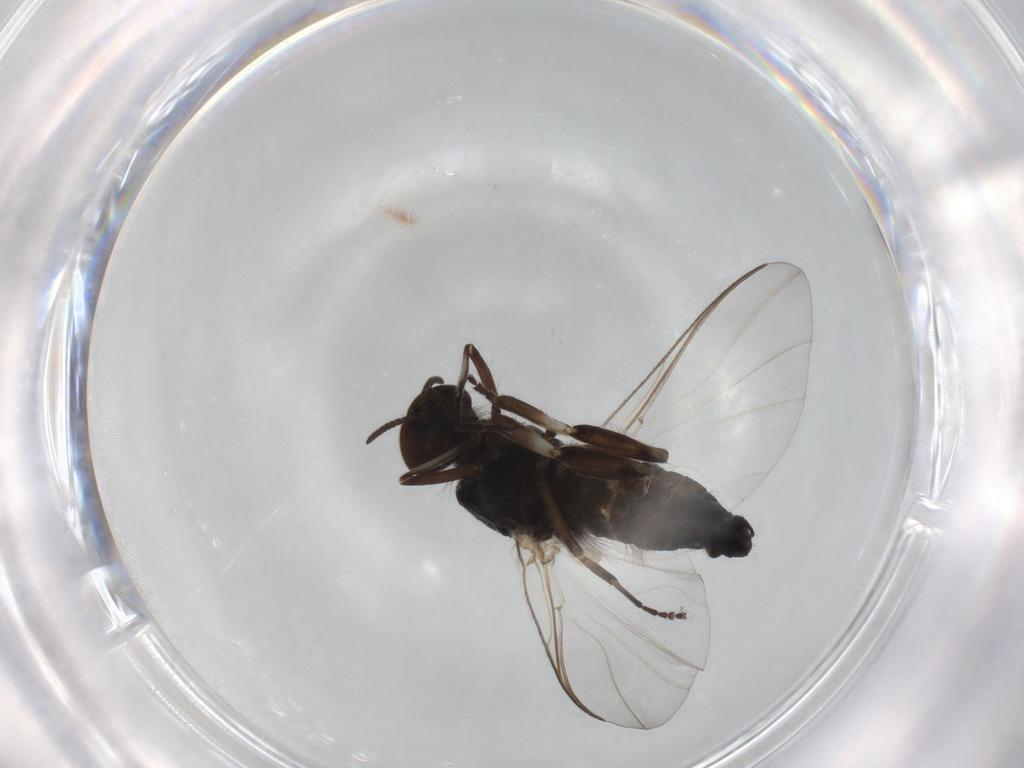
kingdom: Animalia
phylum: Arthropoda
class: Insecta
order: Diptera
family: Simuliidae
